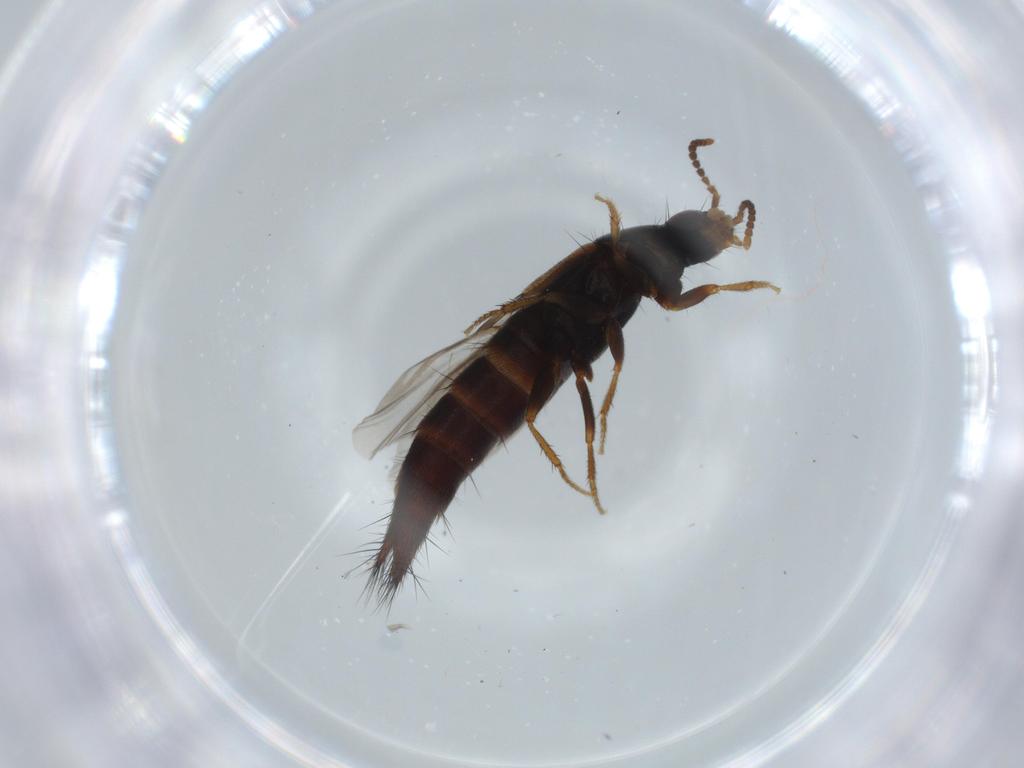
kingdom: Animalia
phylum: Arthropoda
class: Insecta
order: Coleoptera
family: Staphylinidae
